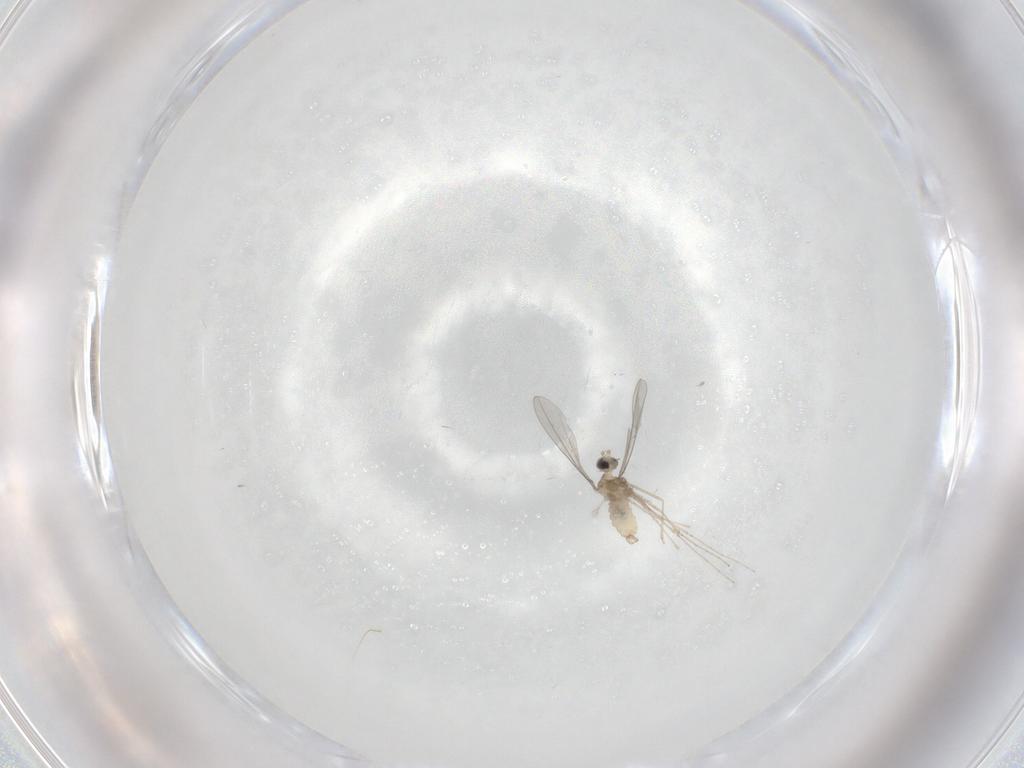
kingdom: Animalia
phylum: Arthropoda
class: Insecta
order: Diptera
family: Cecidomyiidae
